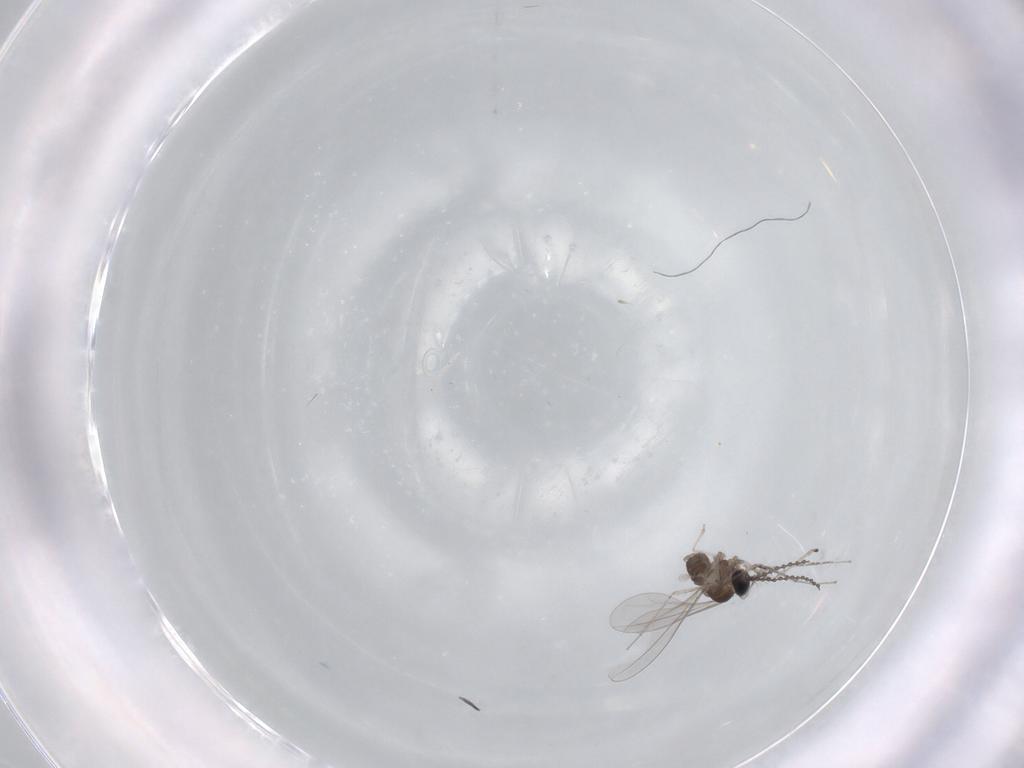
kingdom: Animalia
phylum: Arthropoda
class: Insecta
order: Diptera
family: Cecidomyiidae
